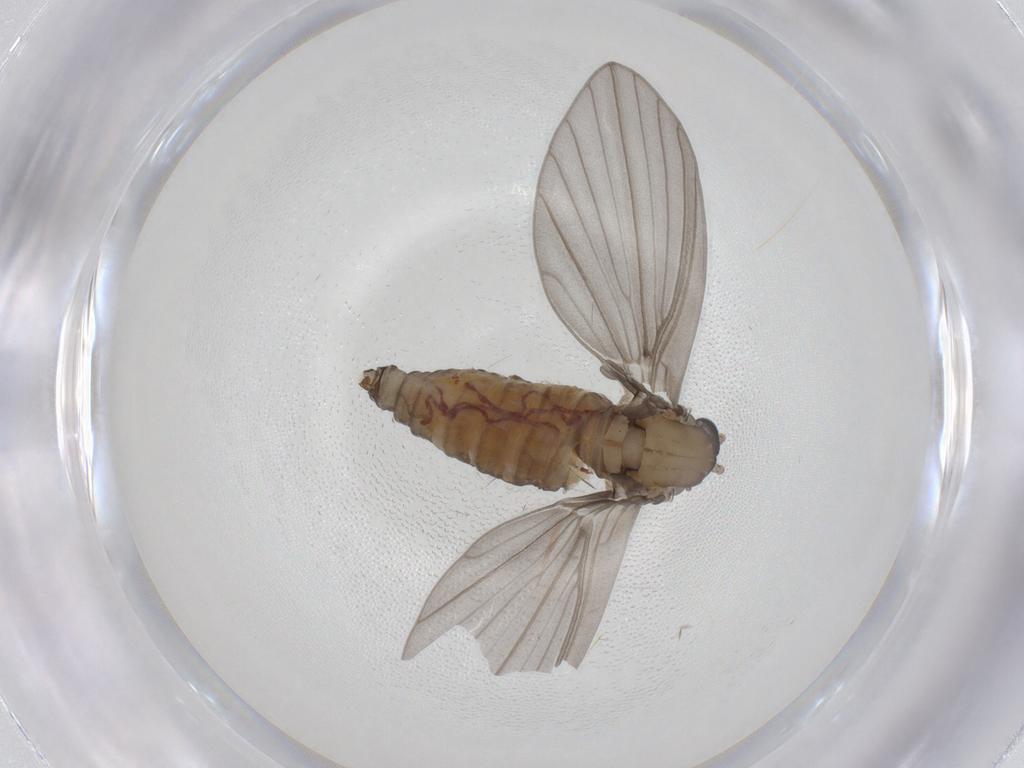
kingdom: Animalia
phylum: Arthropoda
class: Insecta
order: Diptera
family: Psychodidae
